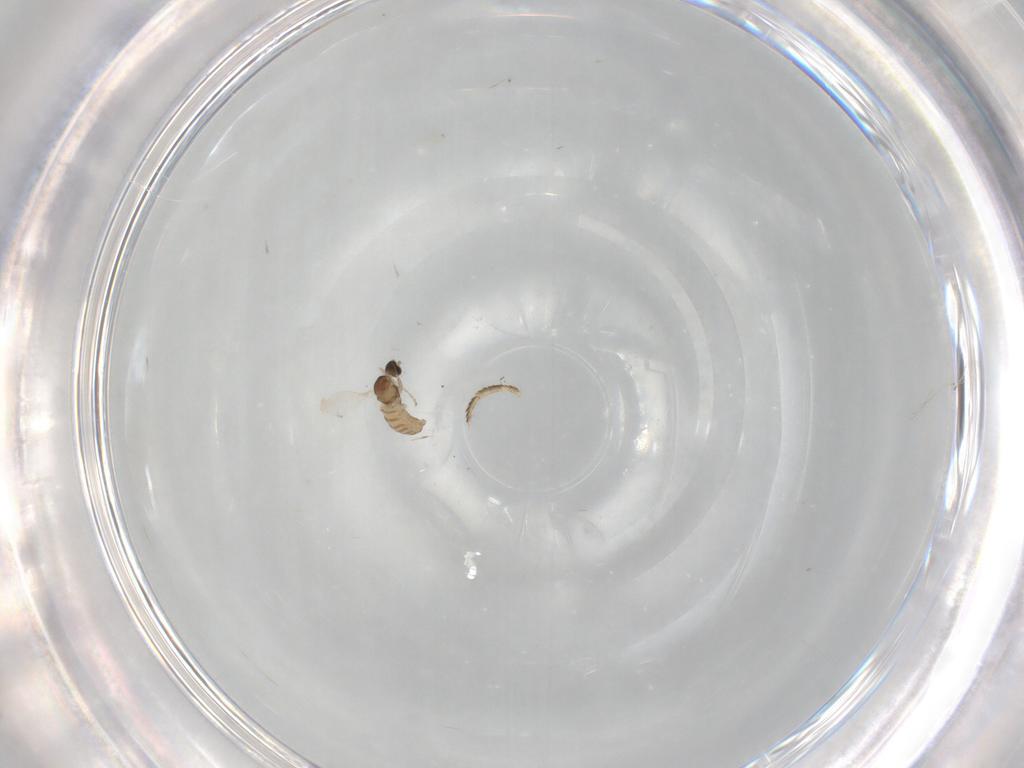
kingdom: Animalia
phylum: Arthropoda
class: Insecta
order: Diptera
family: Cecidomyiidae
